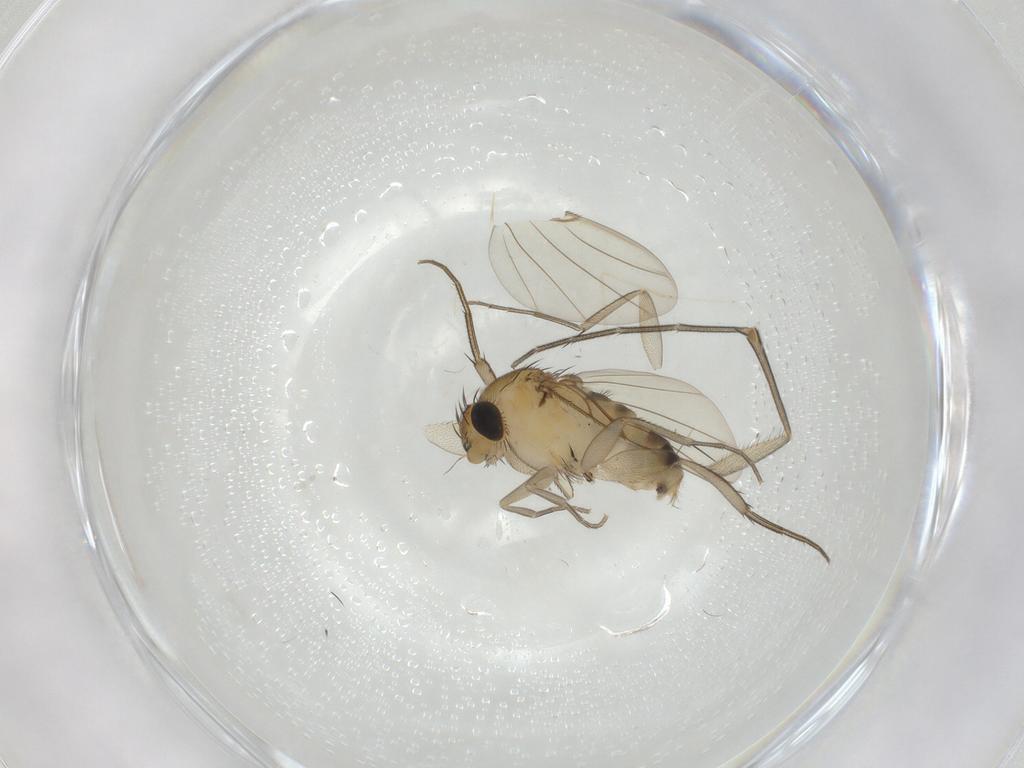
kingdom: Animalia
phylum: Arthropoda
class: Insecta
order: Diptera
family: Phoridae
